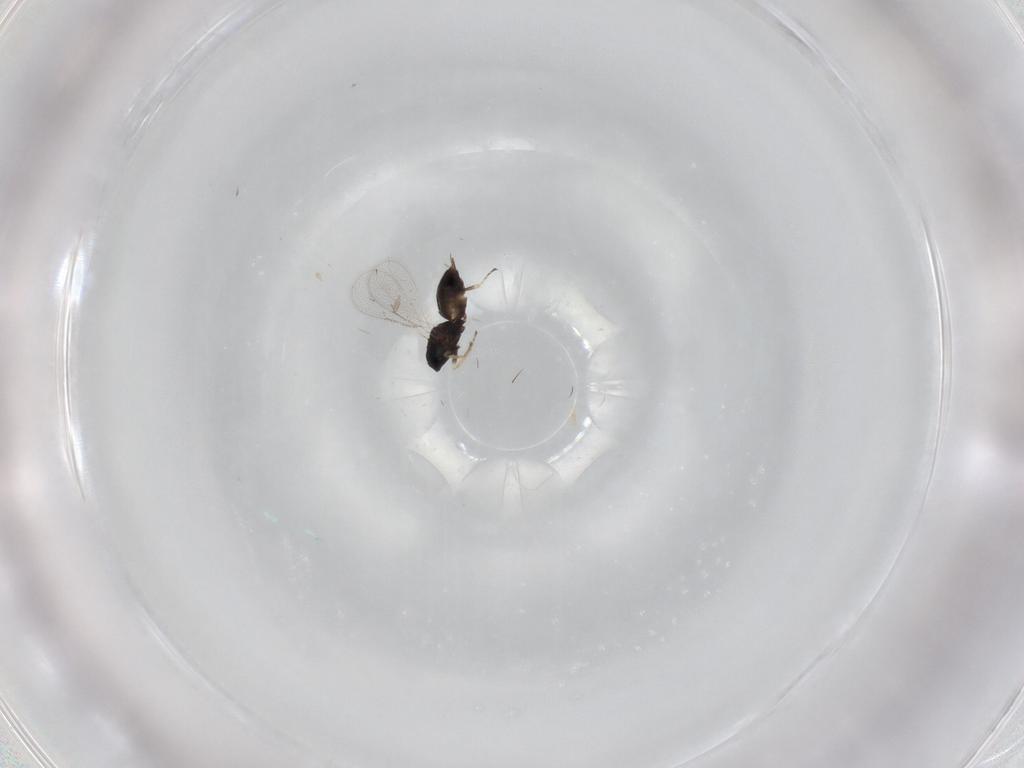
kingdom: Animalia
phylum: Arthropoda
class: Insecta
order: Hymenoptera
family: Eulophidae
